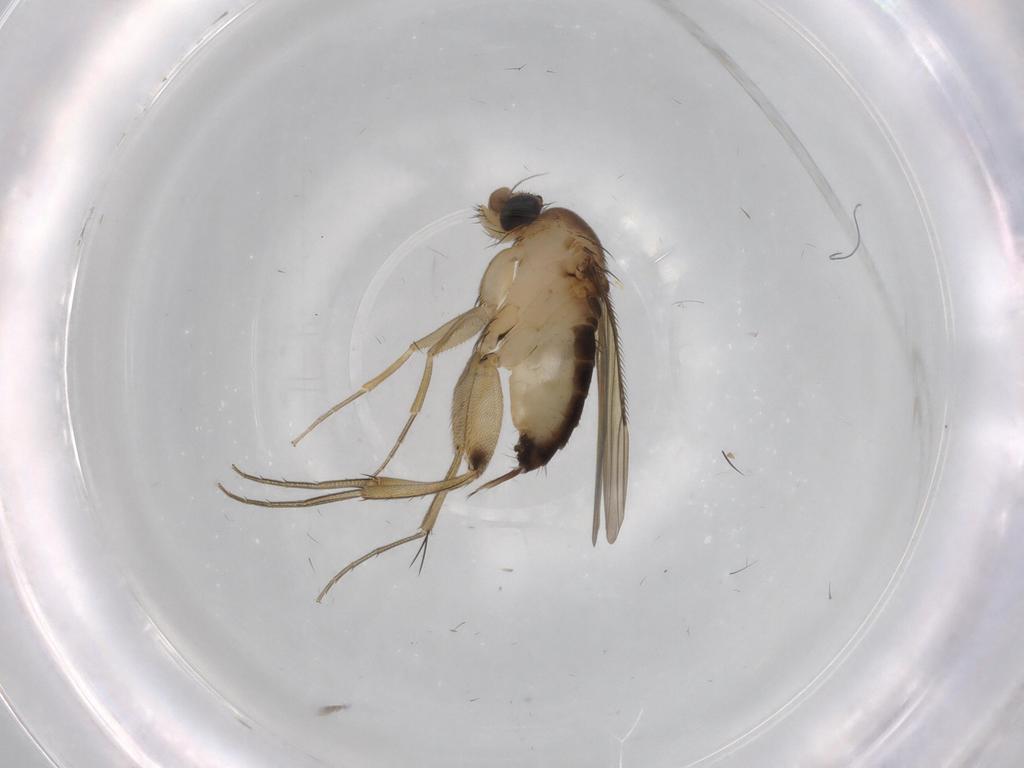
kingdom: Animalia
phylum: Arthropoda
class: Insecta
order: Diptera
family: Phoridae
